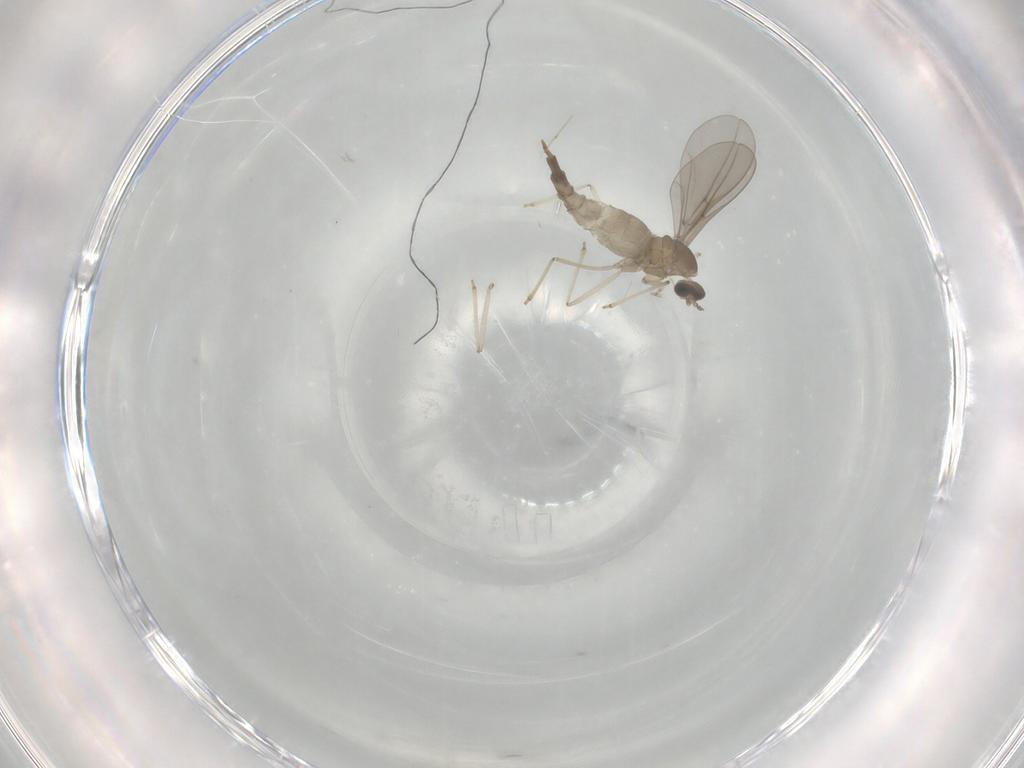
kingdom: Animalia
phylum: Arthropoda
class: Insecta
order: Diptera
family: Cecidomyiidae
